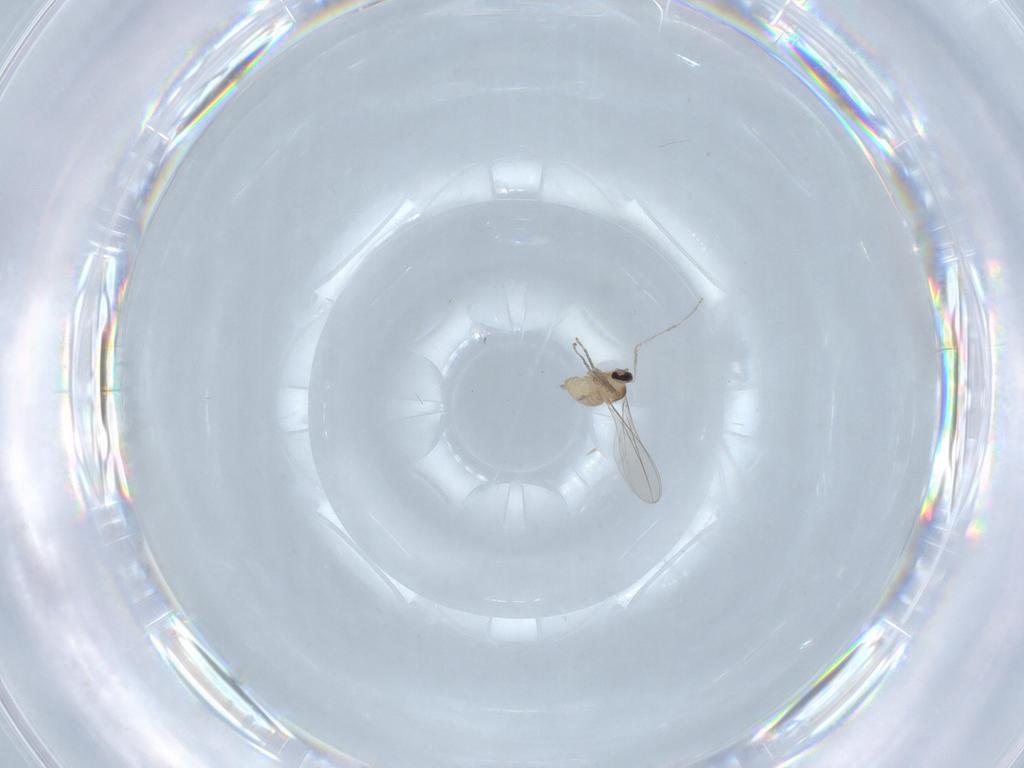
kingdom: Animalia
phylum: Arthropoda
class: Insecta
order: Diptera
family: Cecidomyiidae
